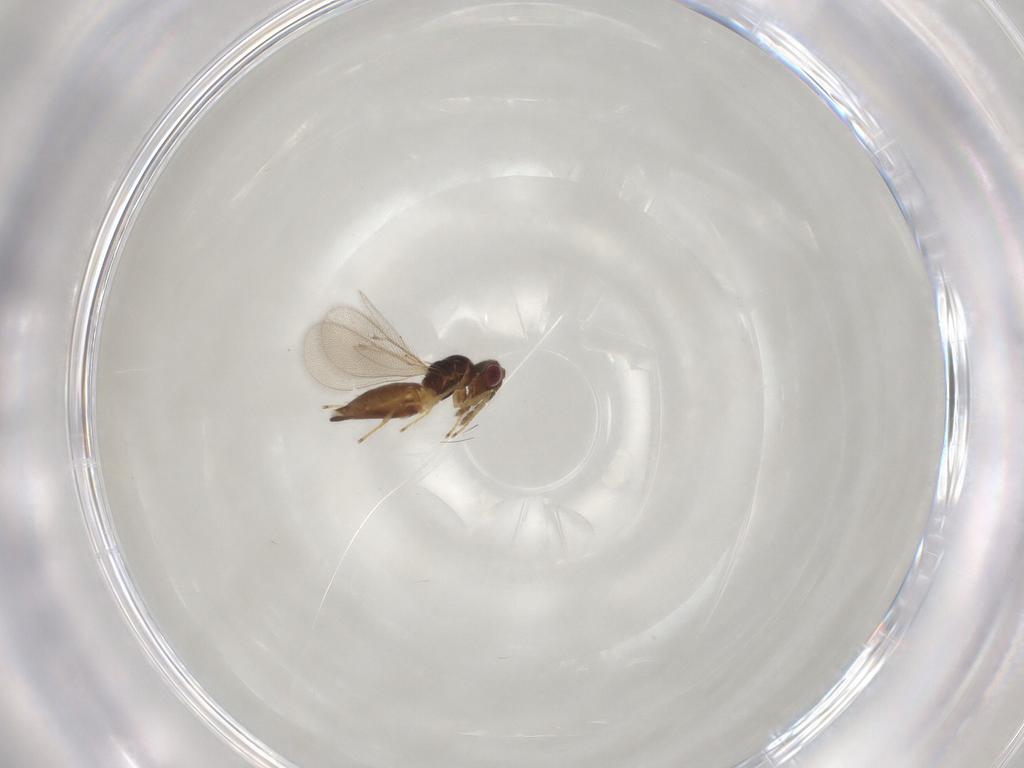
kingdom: Animalia
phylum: Arthropoda
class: Insecta
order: Hymenoptera
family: Eulophidae
